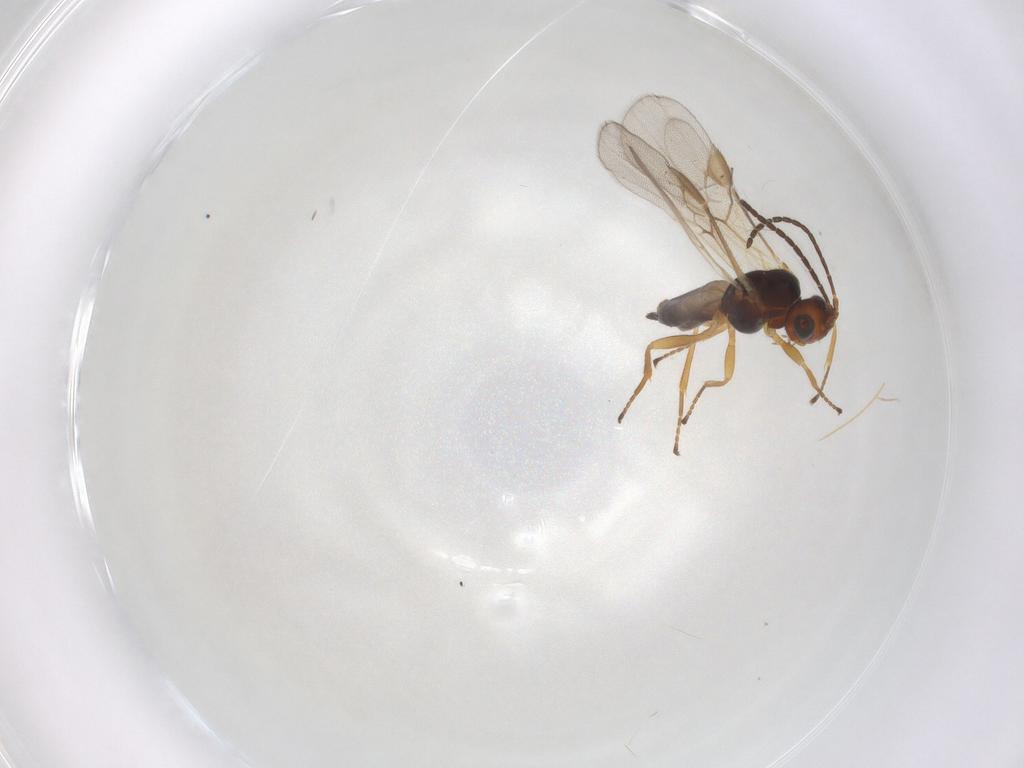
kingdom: Animalia
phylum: Arthropoda
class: Insecta
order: Hymenoptera
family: Braconidae
